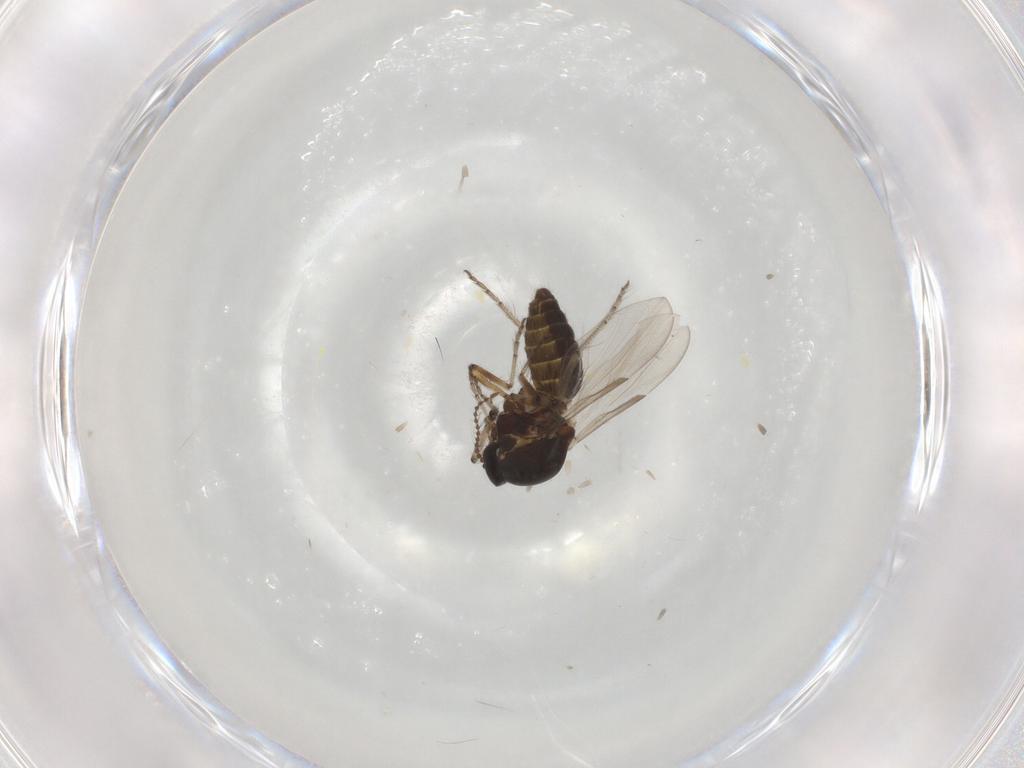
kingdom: Animalia
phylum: Arthropoda
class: Insecta
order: Diptera
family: Ceratopogonidae
